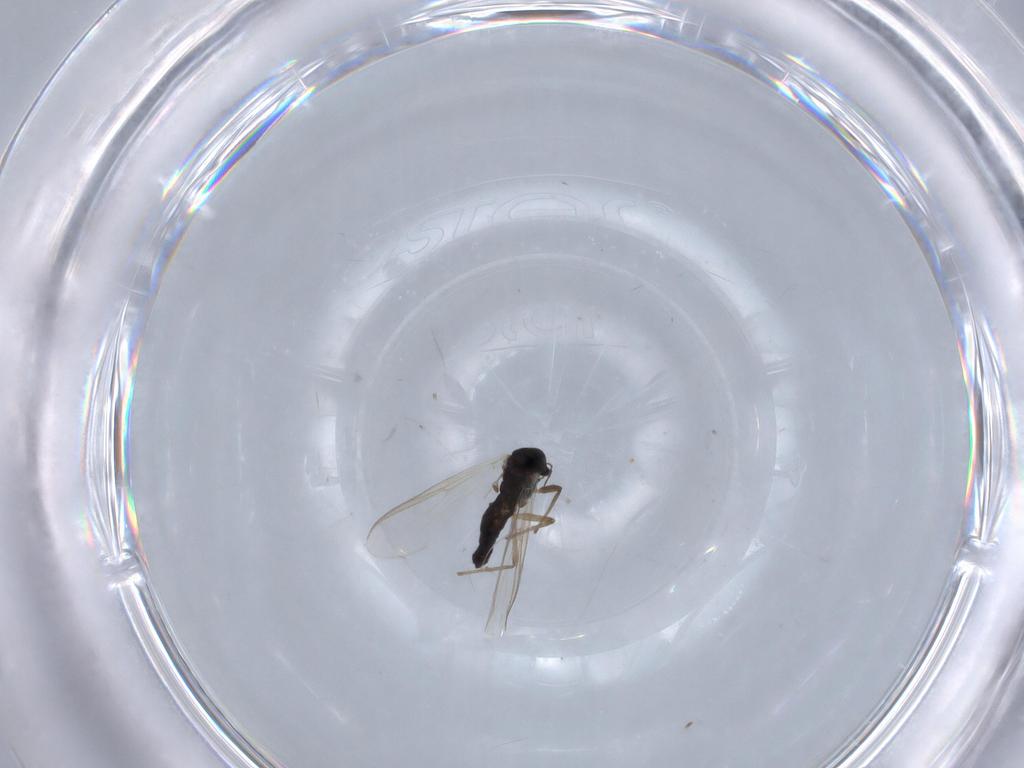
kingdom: Animalia
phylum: Arthropoda
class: Insecta
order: Diptera
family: Chironomidae
